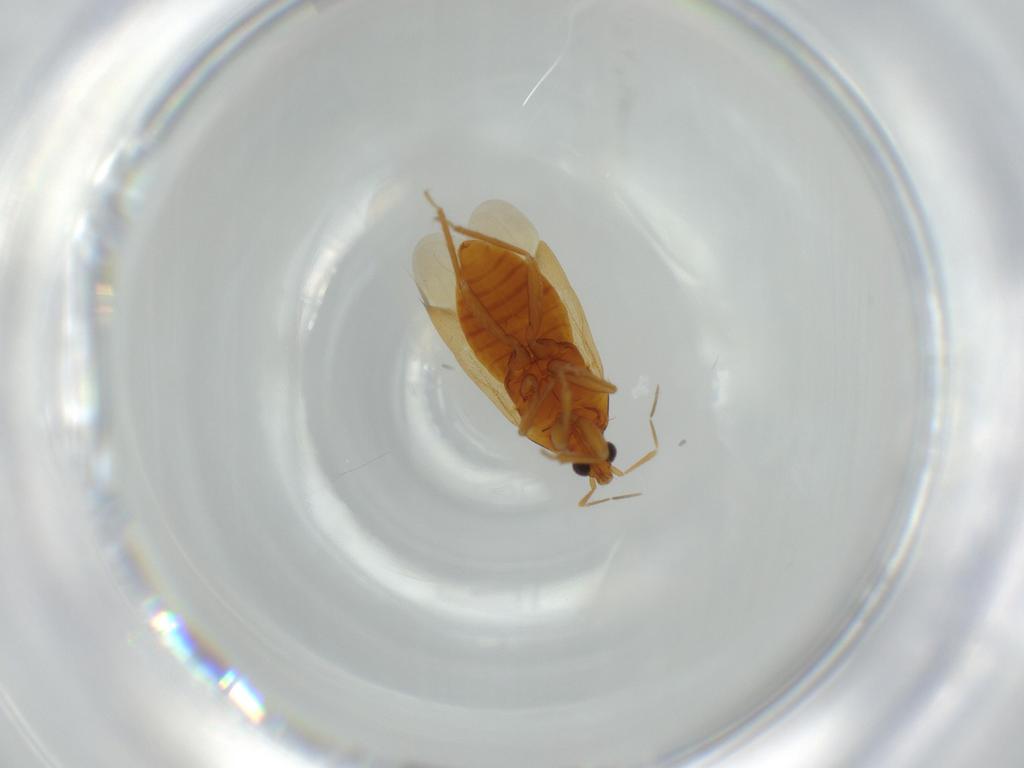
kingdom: Animalia
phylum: Arthropoda
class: Insecta
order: Hemiptera
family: Anthocoridae
